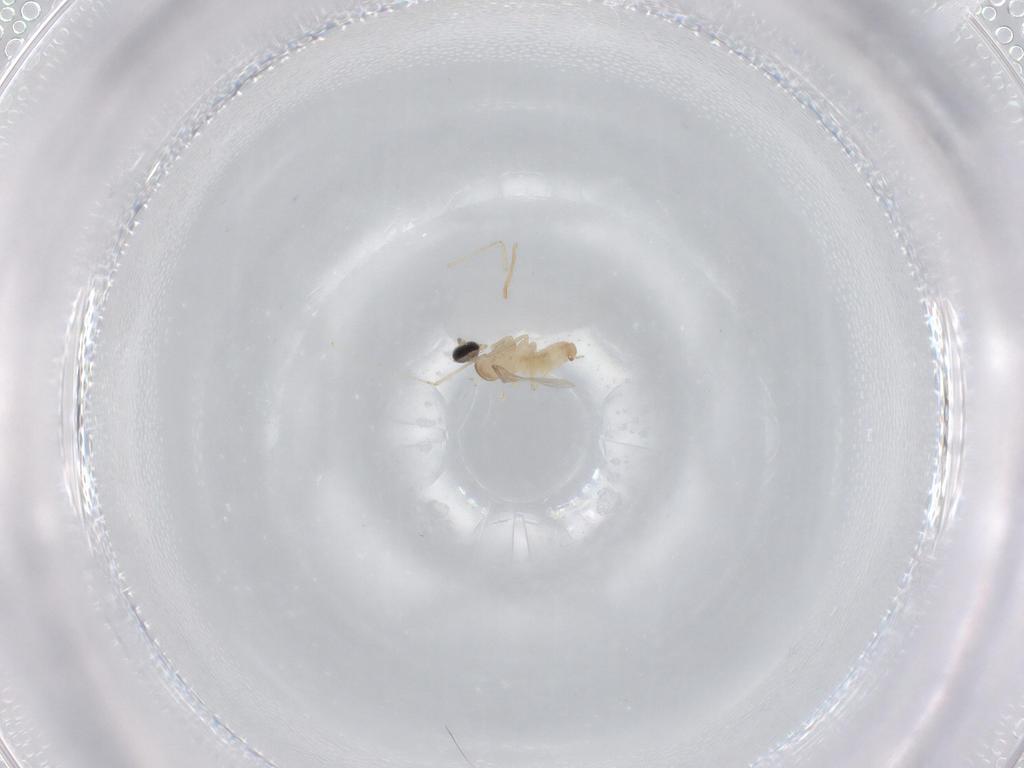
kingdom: Animalia
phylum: Arthropoda
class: Insecta
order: Diptera
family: Cecidomyiidae
